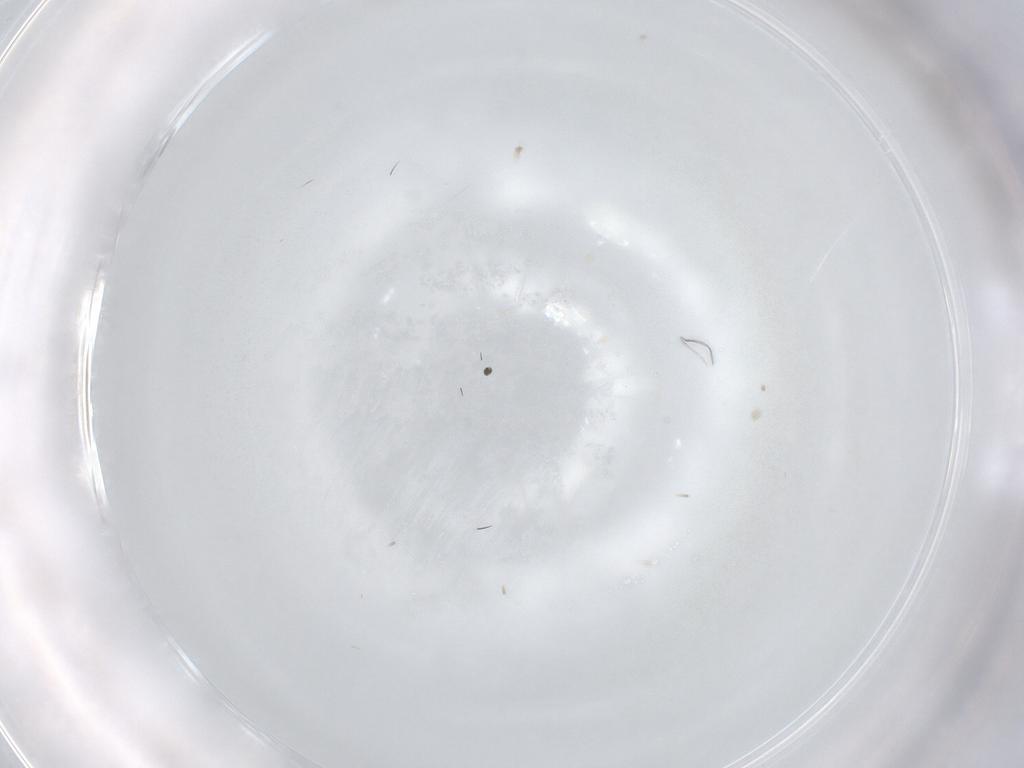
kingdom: Animalia
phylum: Arthropoda
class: Insecta
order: Diptera
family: Cecidomyiidae
